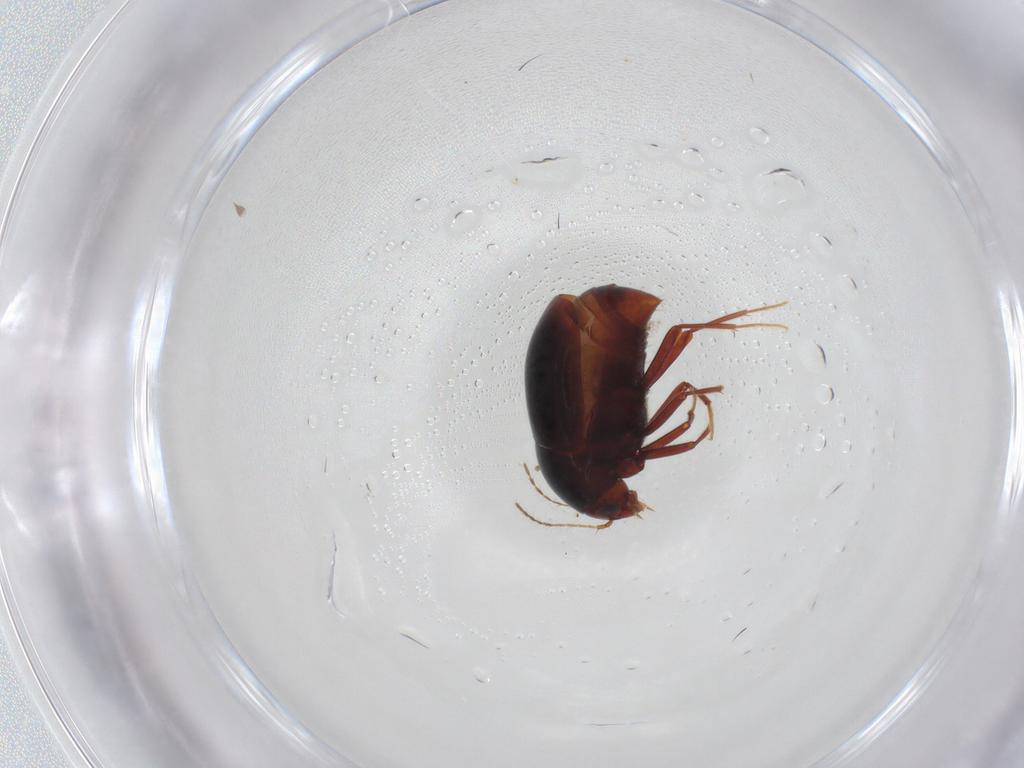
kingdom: Animalia
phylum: Arthropoda
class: Insecta
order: Coleoptera
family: Staphylinidae
